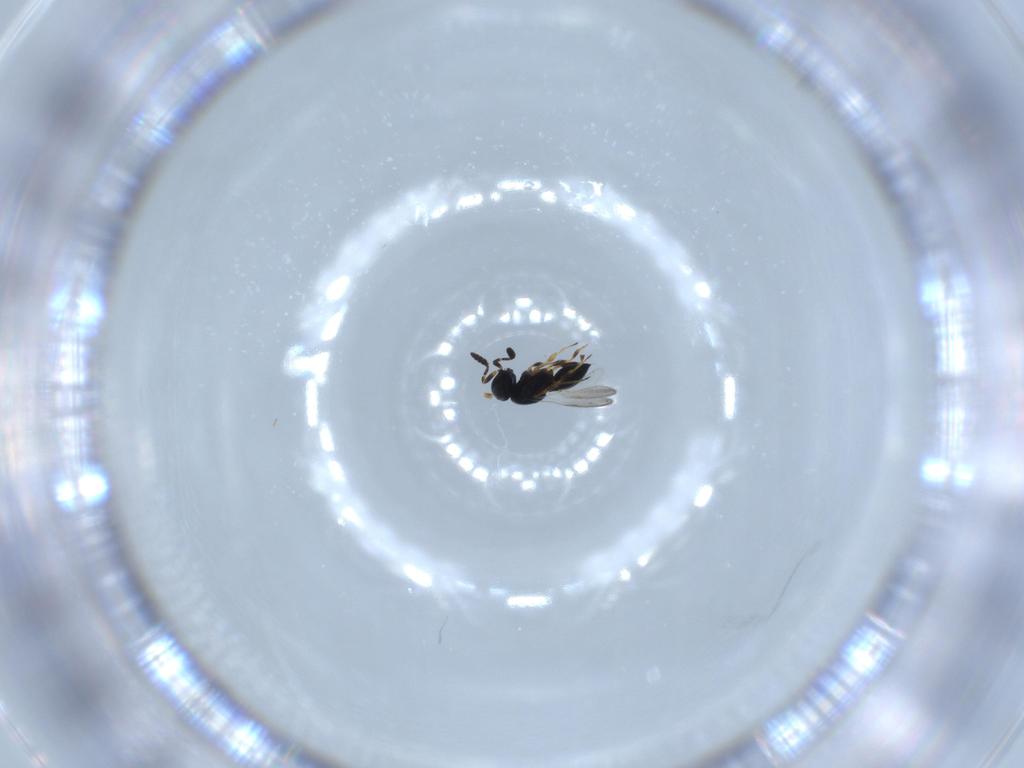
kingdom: Animalia
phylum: Arthropoda
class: Insecta
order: Hymenoptera
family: Scelionidae
